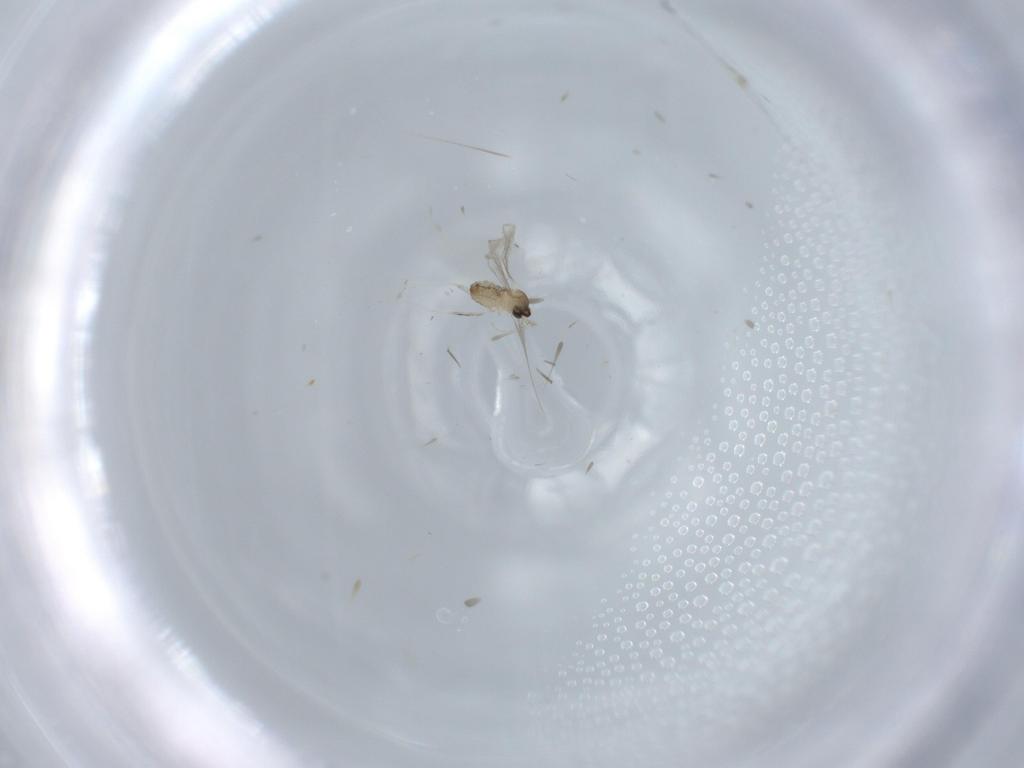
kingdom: Animalia
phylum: Arthropoda
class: Insecta
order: Diptera
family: Cecidomyiidae
